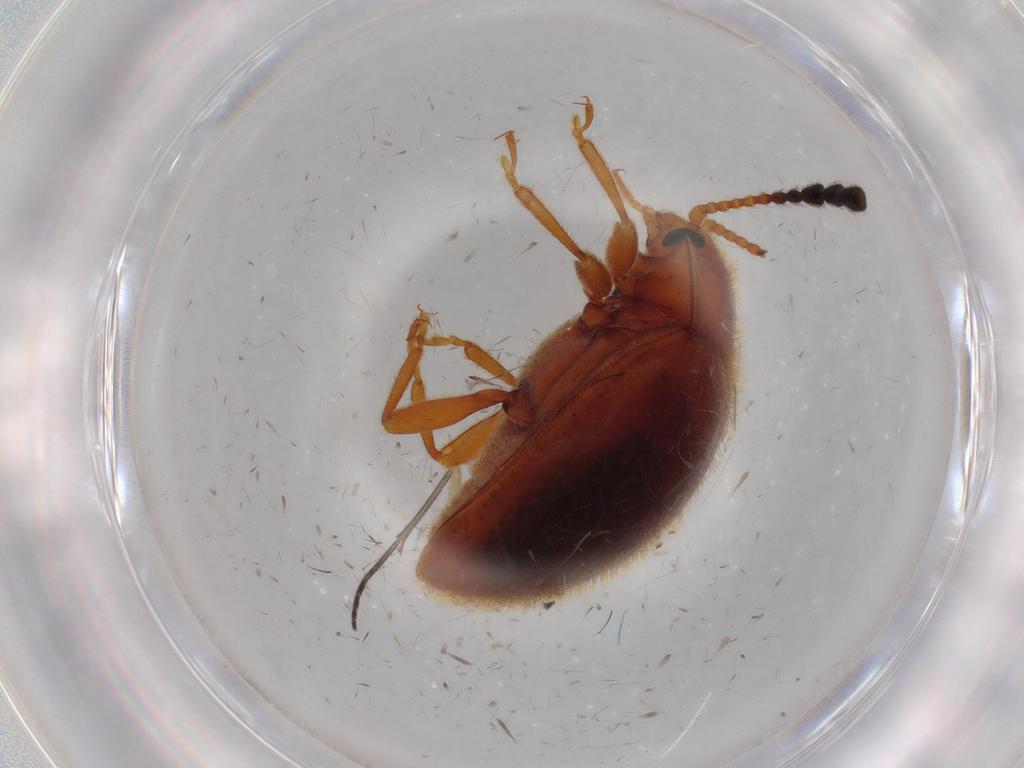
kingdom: Animalia
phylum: Arthropoda
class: Insecta
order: Coleoptera
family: Endomychidae
